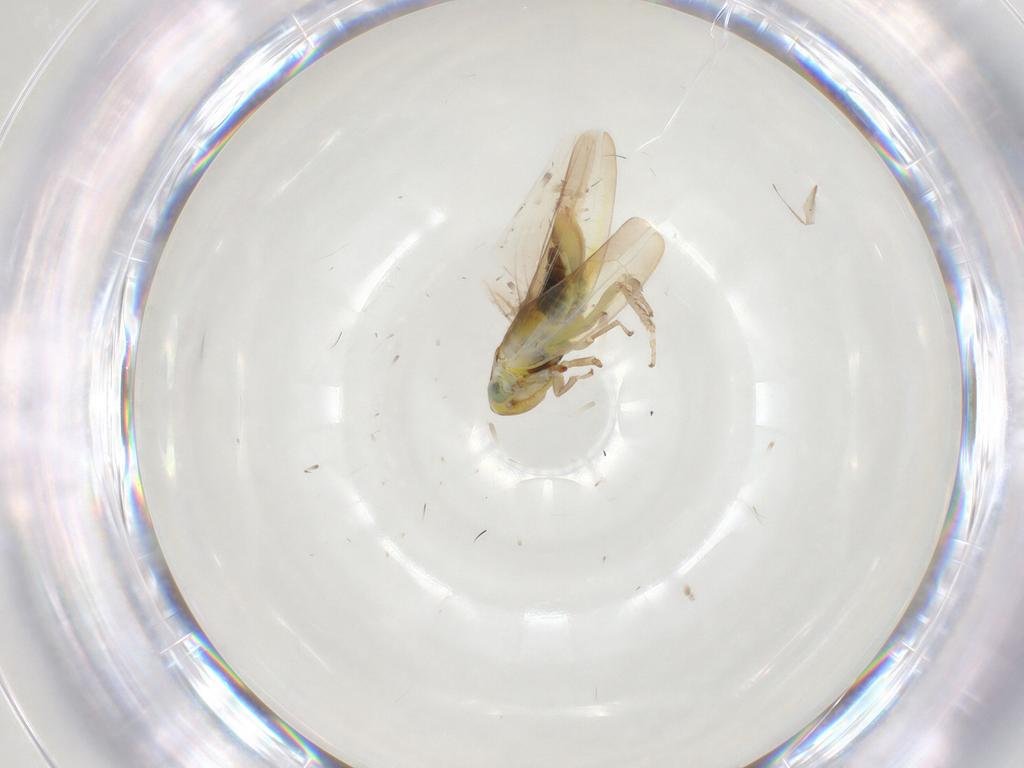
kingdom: Animalia
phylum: Arthropoda
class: Insecta
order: Hemiptera
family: Cicadellidae
